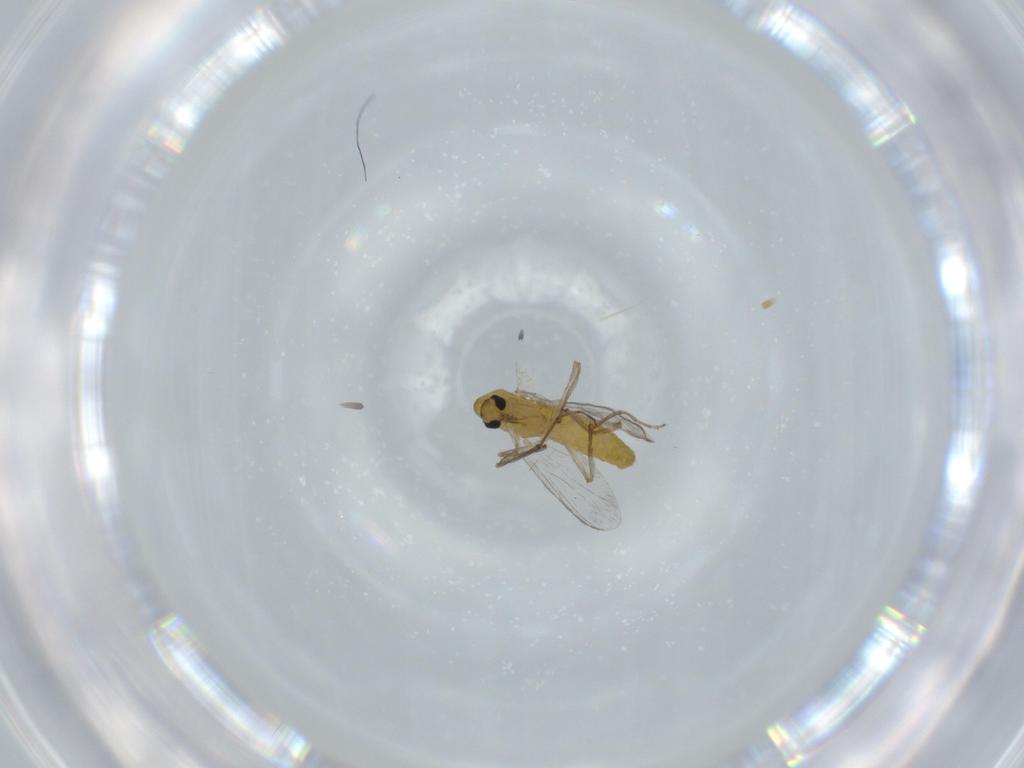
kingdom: Animalia
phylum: Arthropoda
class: Insecta
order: Diptera
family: Chironomidae
